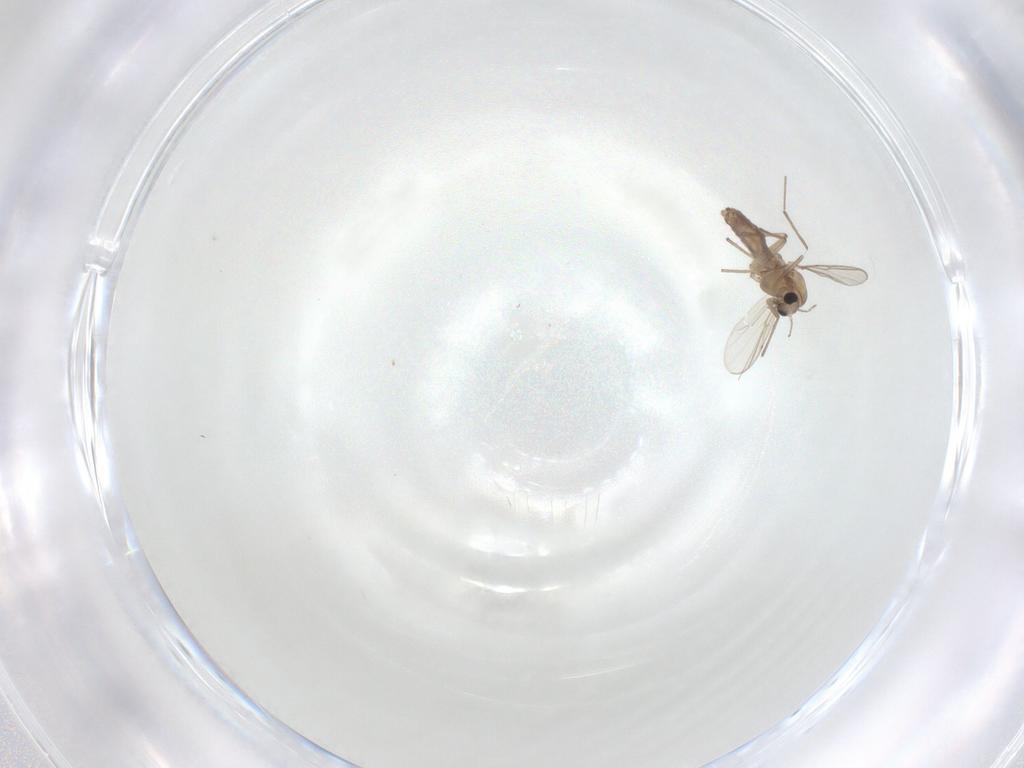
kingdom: Animalia
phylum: Arthropoda
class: Insecta
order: Diptera
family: Chironomidae
